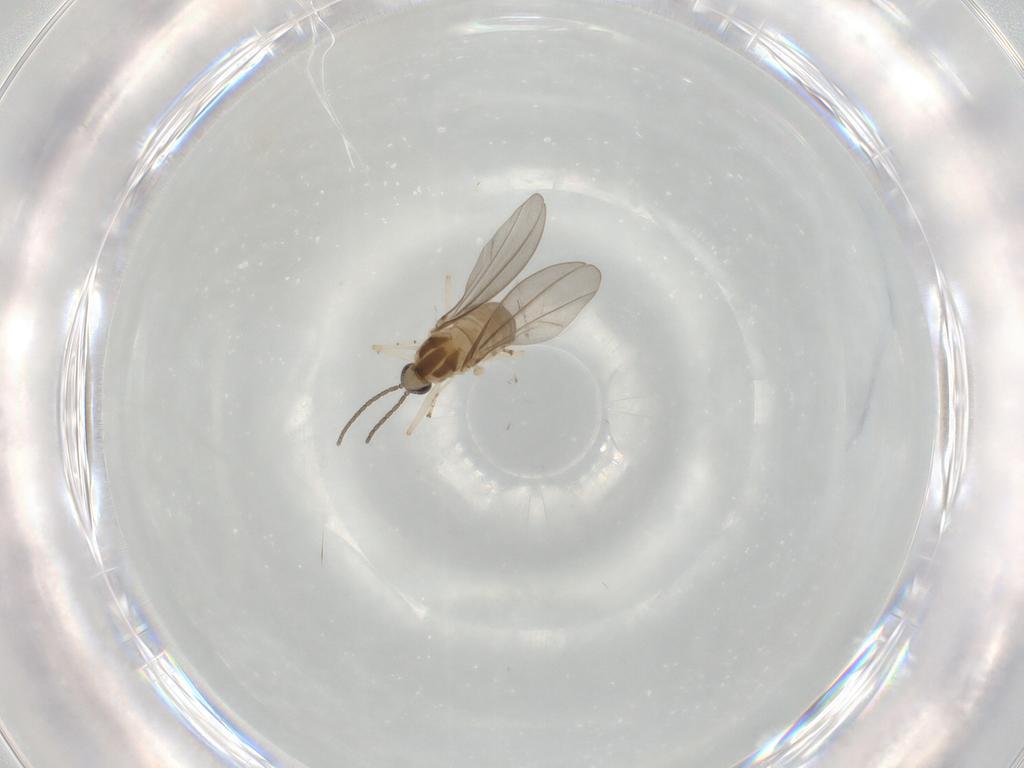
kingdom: Animalia
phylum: Arthropoda
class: Insecta
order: Diptera
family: Cecidomyiidae
